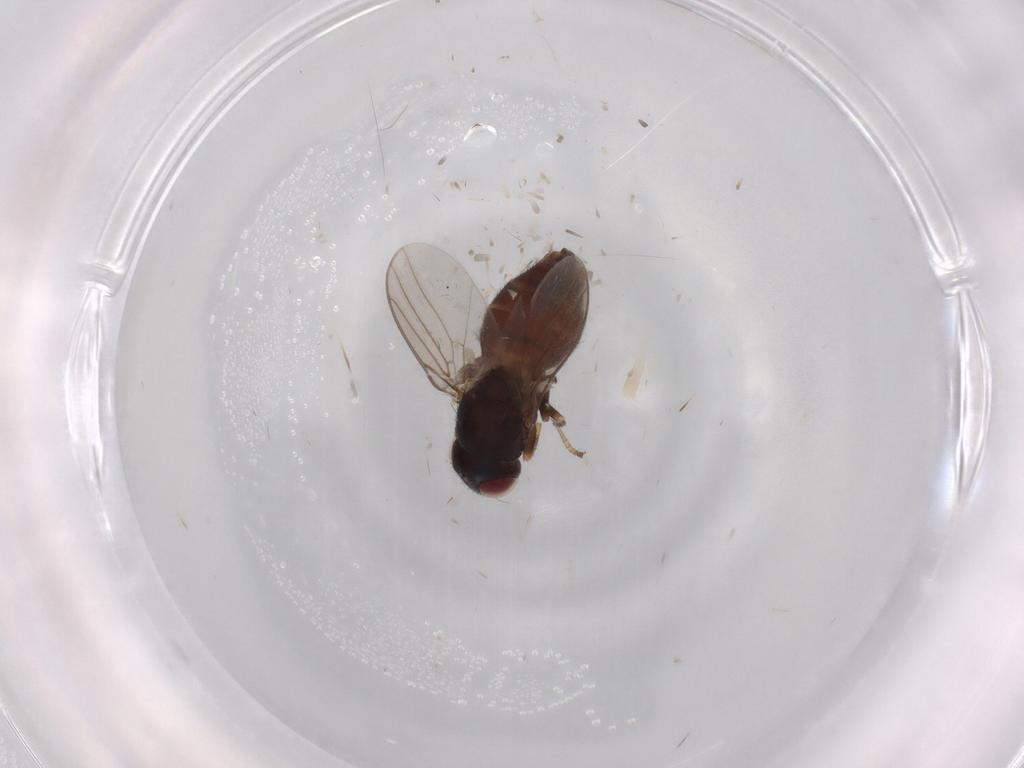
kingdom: Animalia
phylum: Arthropoda
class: Insecta
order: Diptera
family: Chloropidae
